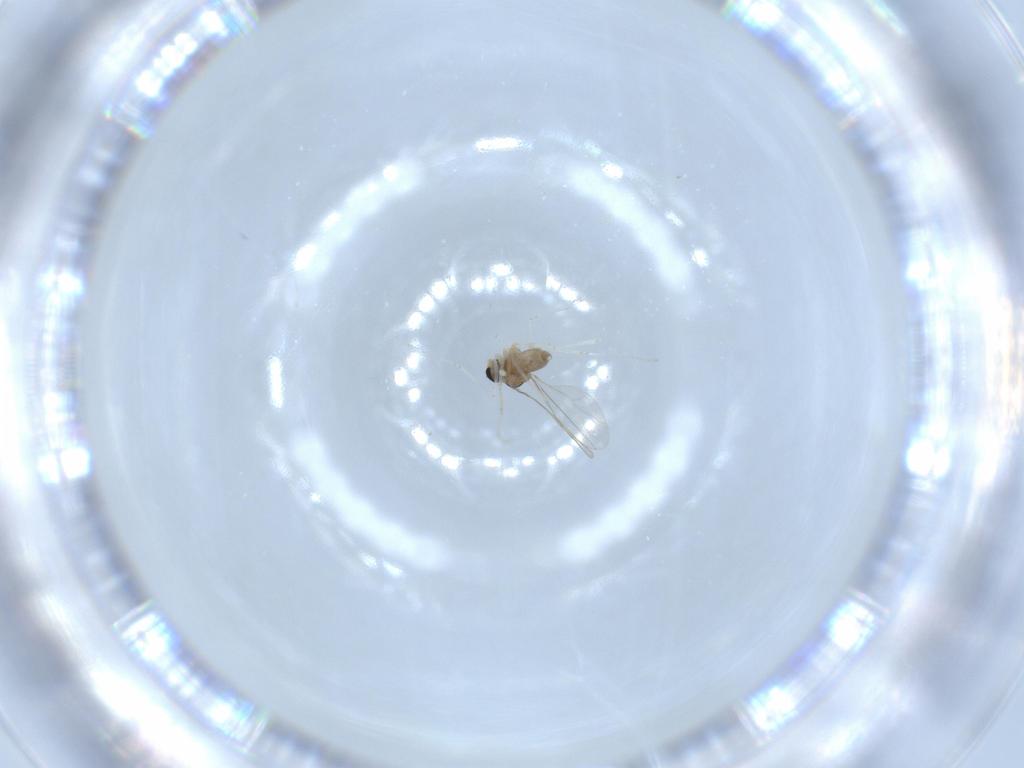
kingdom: Animalia
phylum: Arthropoda
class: Insecta
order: Diptera
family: Cecidomyiidae
